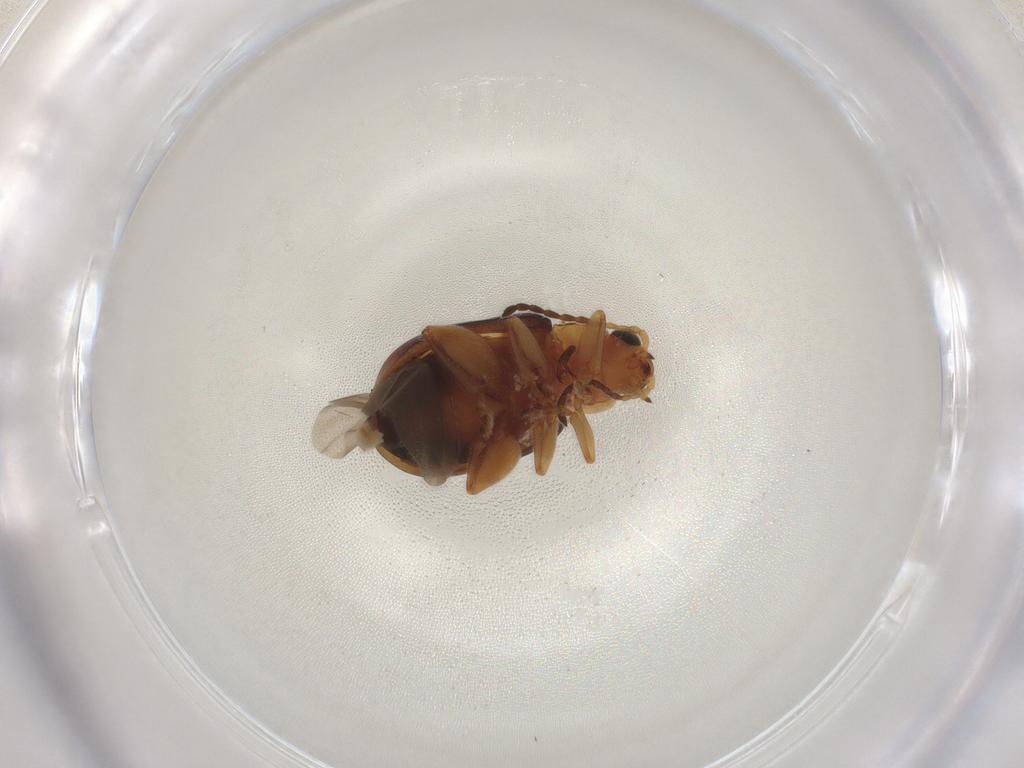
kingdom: Animalia
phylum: Arthropoda
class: Insecta
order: Coleoptera
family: Chrysomelidae
